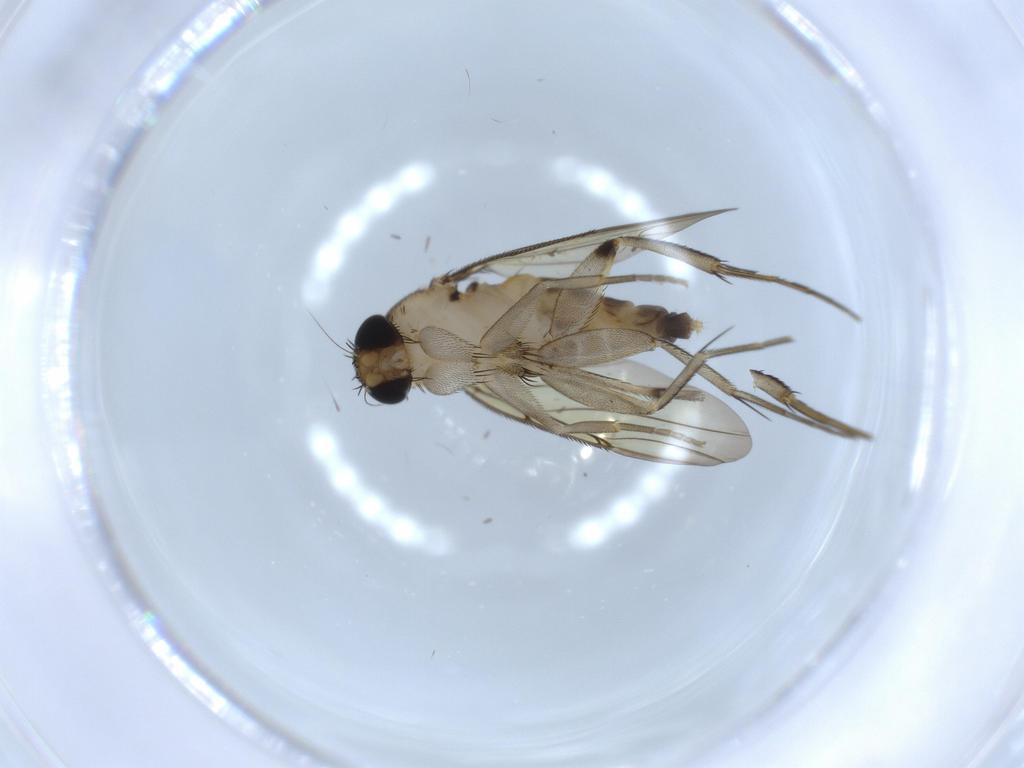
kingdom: Animalia
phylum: Arthropoda
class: Insecta
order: Diptera
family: Phoridae
